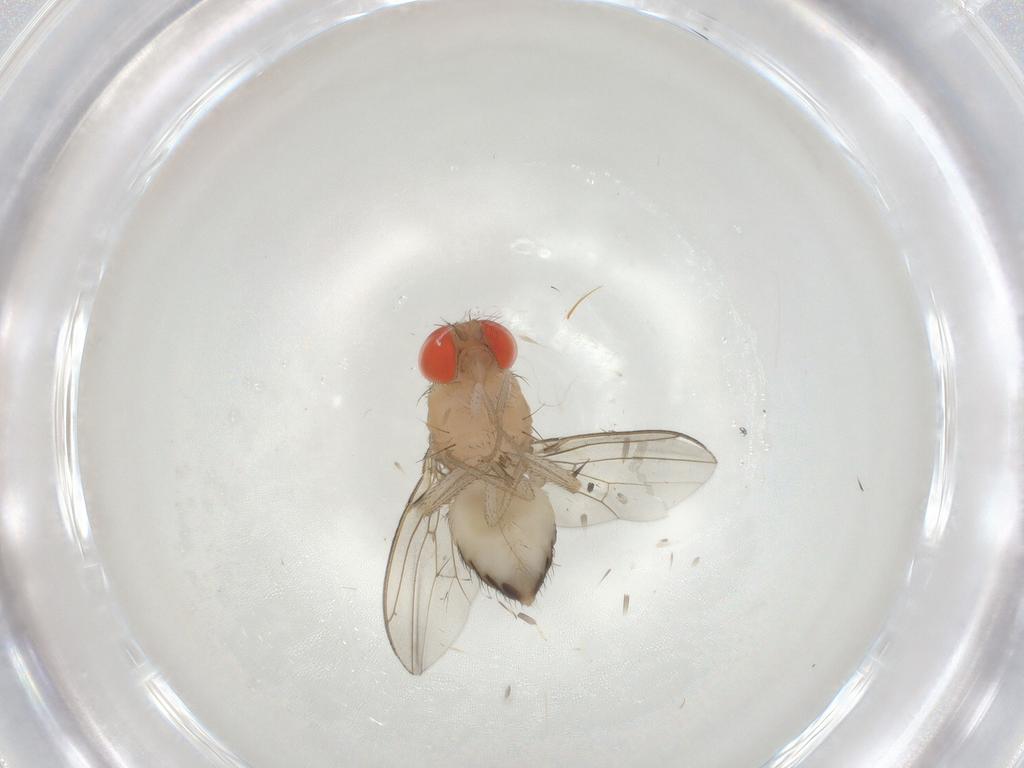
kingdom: Animalia
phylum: Arthropoda
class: Insecta
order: Diptera
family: Drosophilidae
